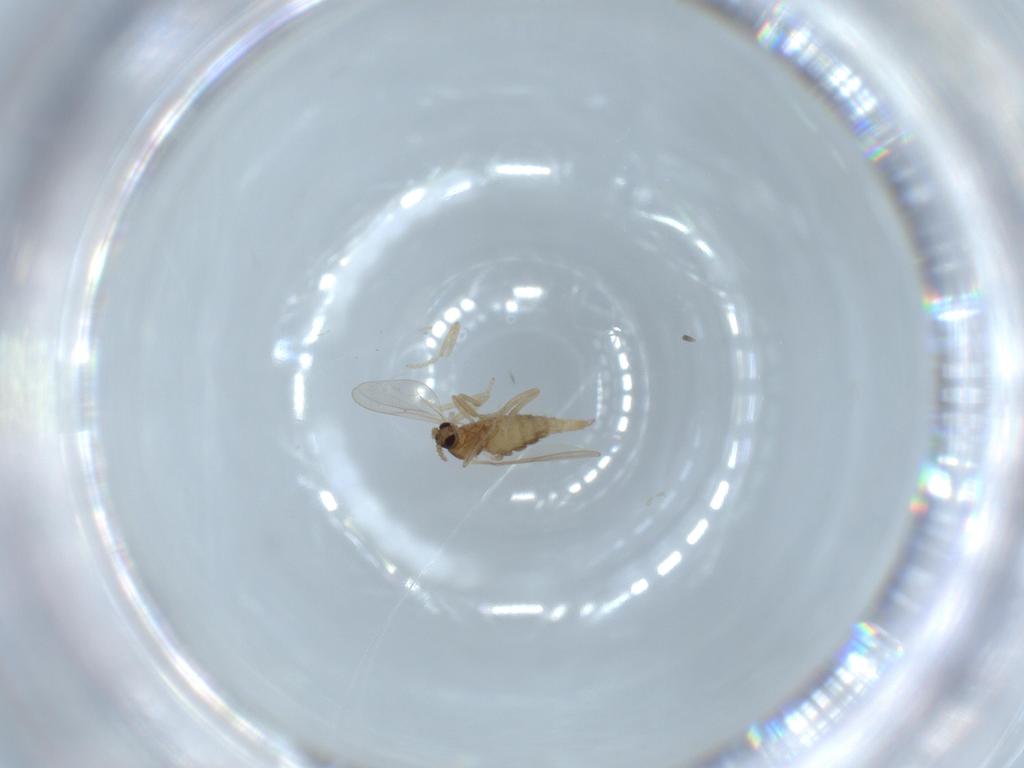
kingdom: Animalia
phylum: Arthropoda
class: Insecta
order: Diptera
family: Cecidomyiidae
